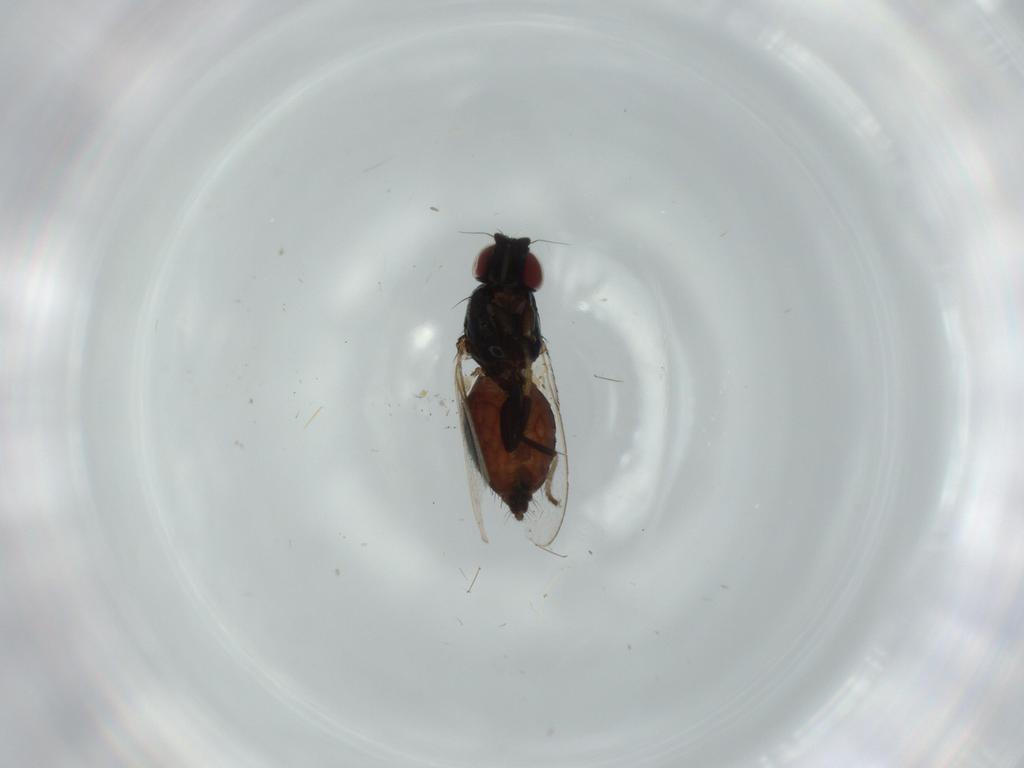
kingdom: Animalia
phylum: Arthropoda
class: Insecta
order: Diptera
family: Milichiidae
